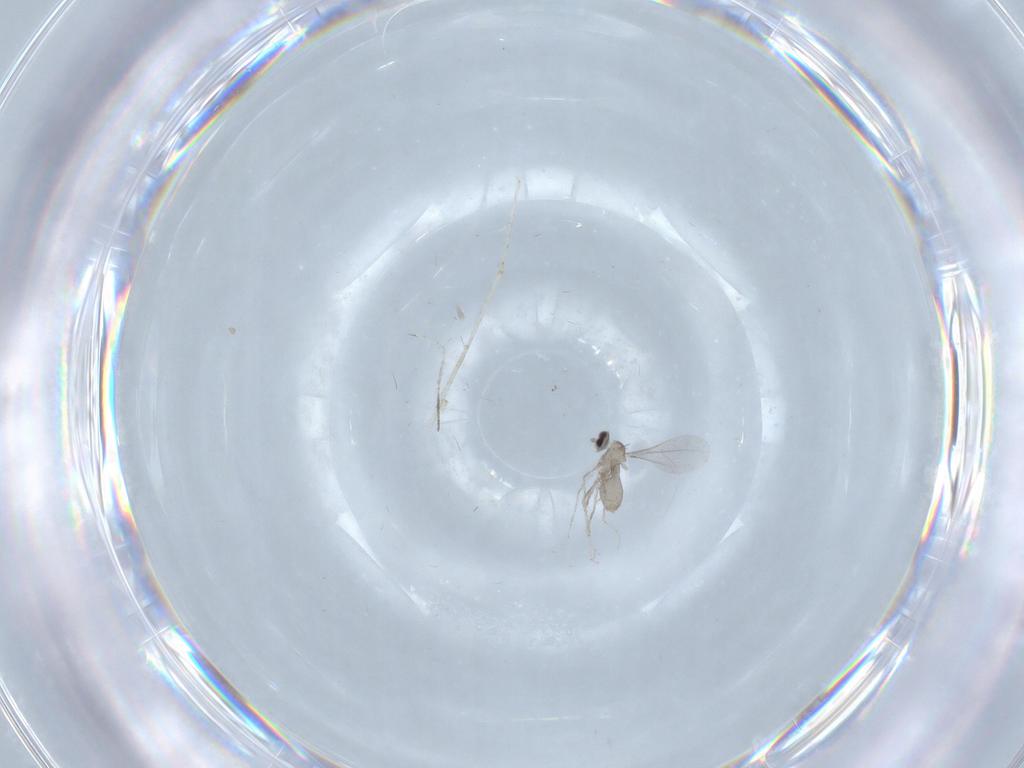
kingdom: Animalia
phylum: Arthropoda
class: Insecta
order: Diptera
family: Cecidomyiidae
